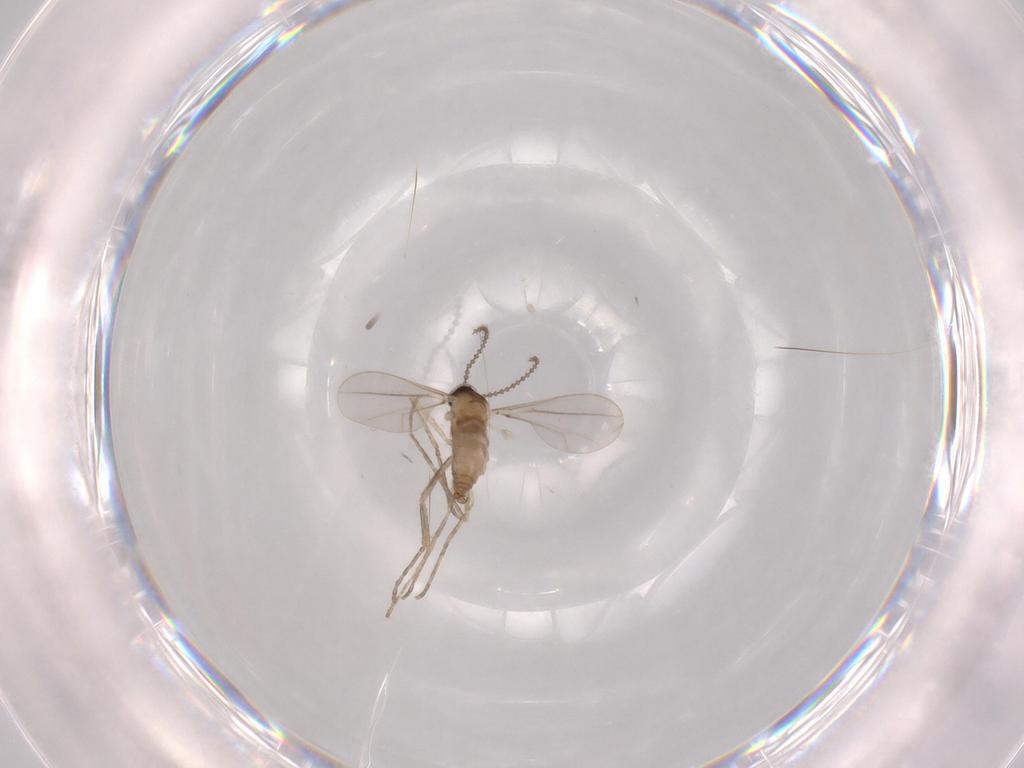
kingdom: Animalia
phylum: Arthropoda
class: Insecta
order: Diptera
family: Cecidomyiidae
